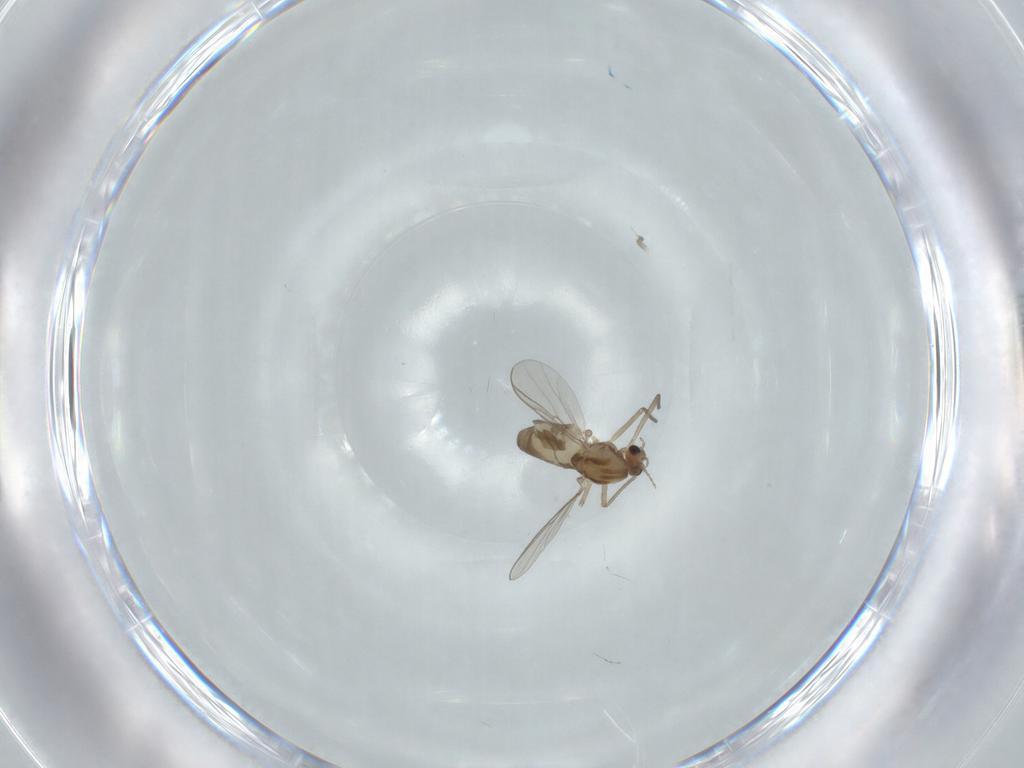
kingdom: Animalia
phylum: Arthropoda
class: Insecta
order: Diptera
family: Chironomidae
